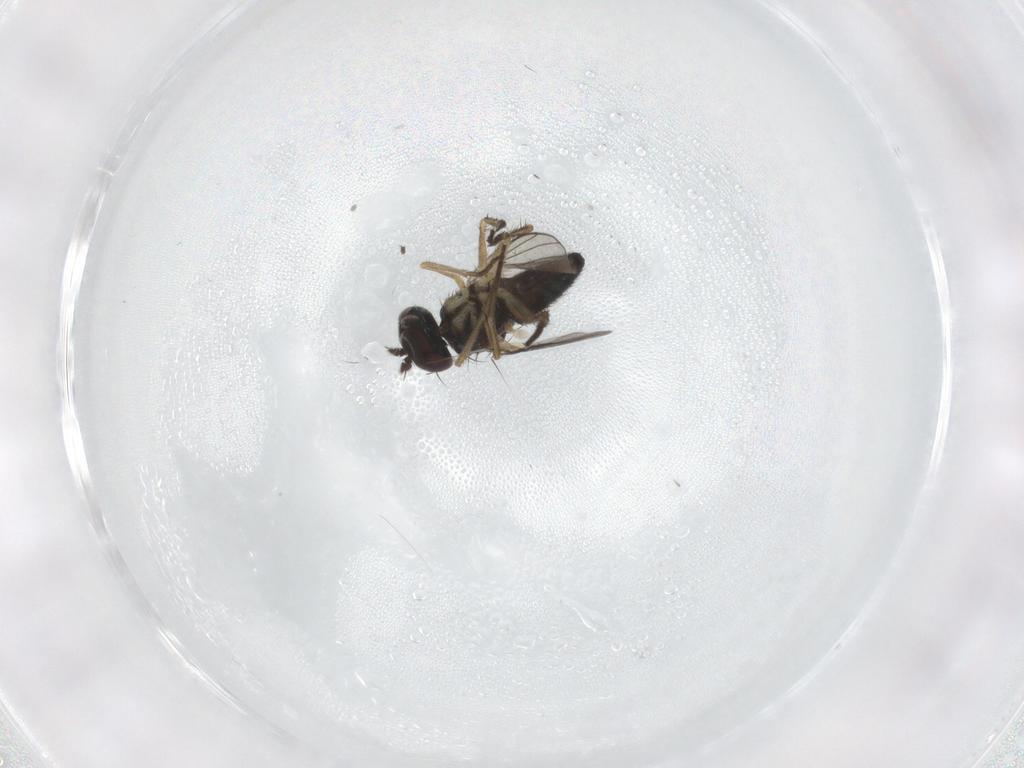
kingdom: Animalia
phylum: Arthropoda
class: Insecta
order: Diptera
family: Dolichopodidae
